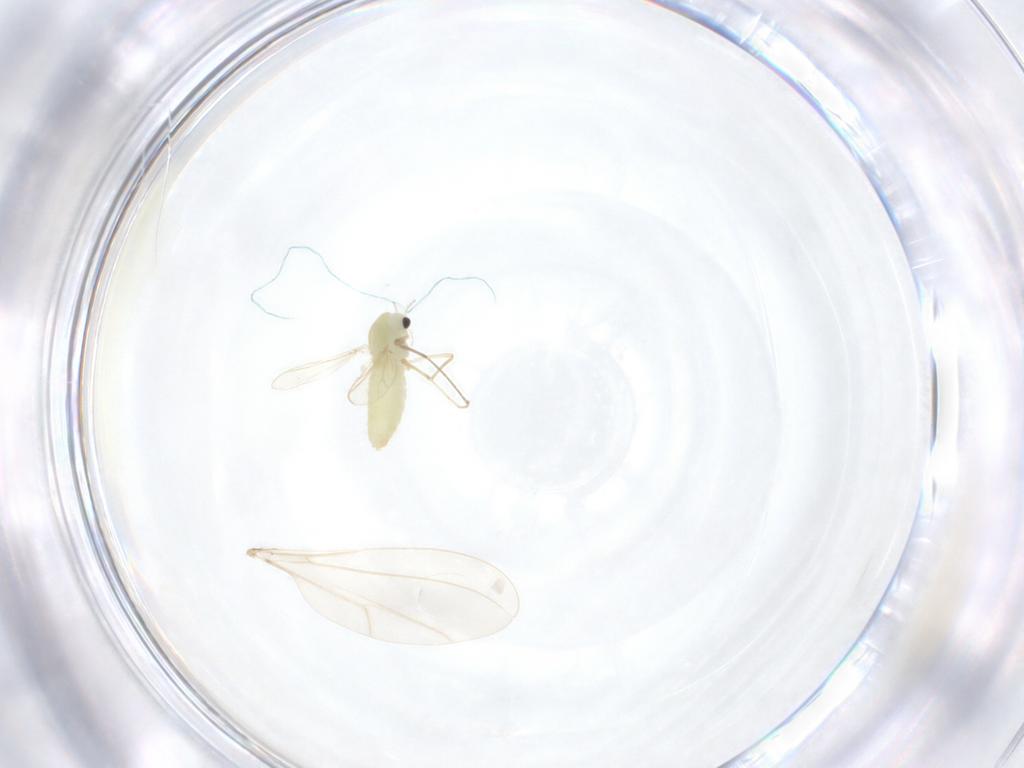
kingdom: Animalia
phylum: Arthropoda
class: Insecta
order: Diptera
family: Chironomidae
